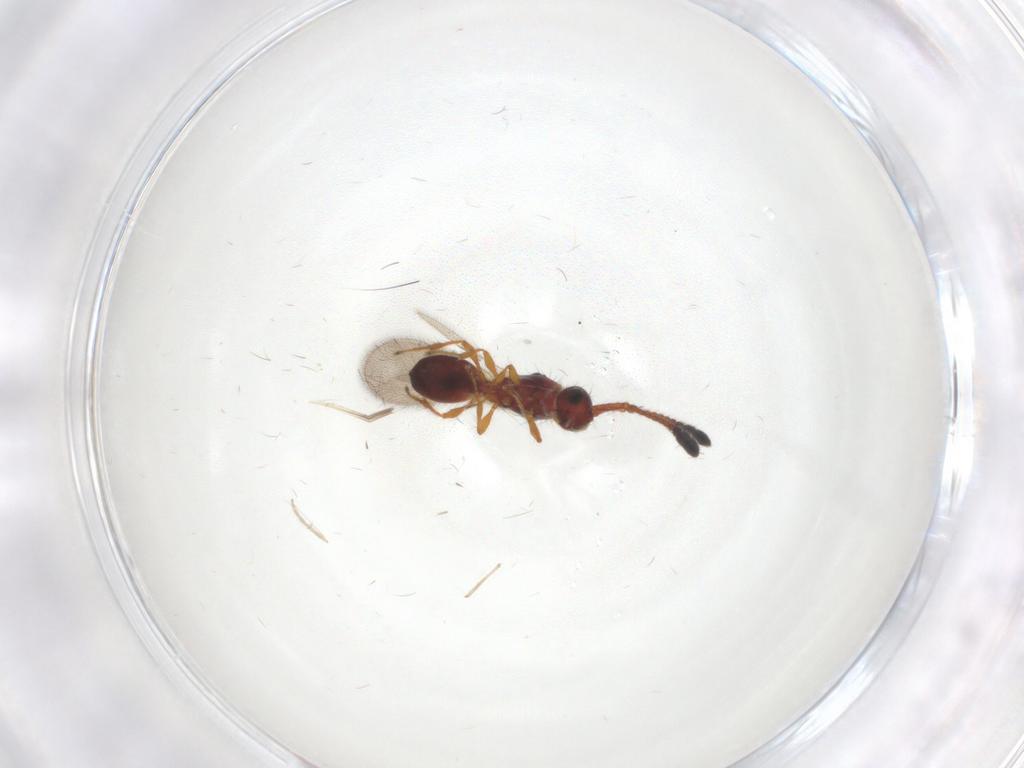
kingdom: Animalia
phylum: Arthropoda
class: Insecta
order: Hymenoptera
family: Diapriidae
